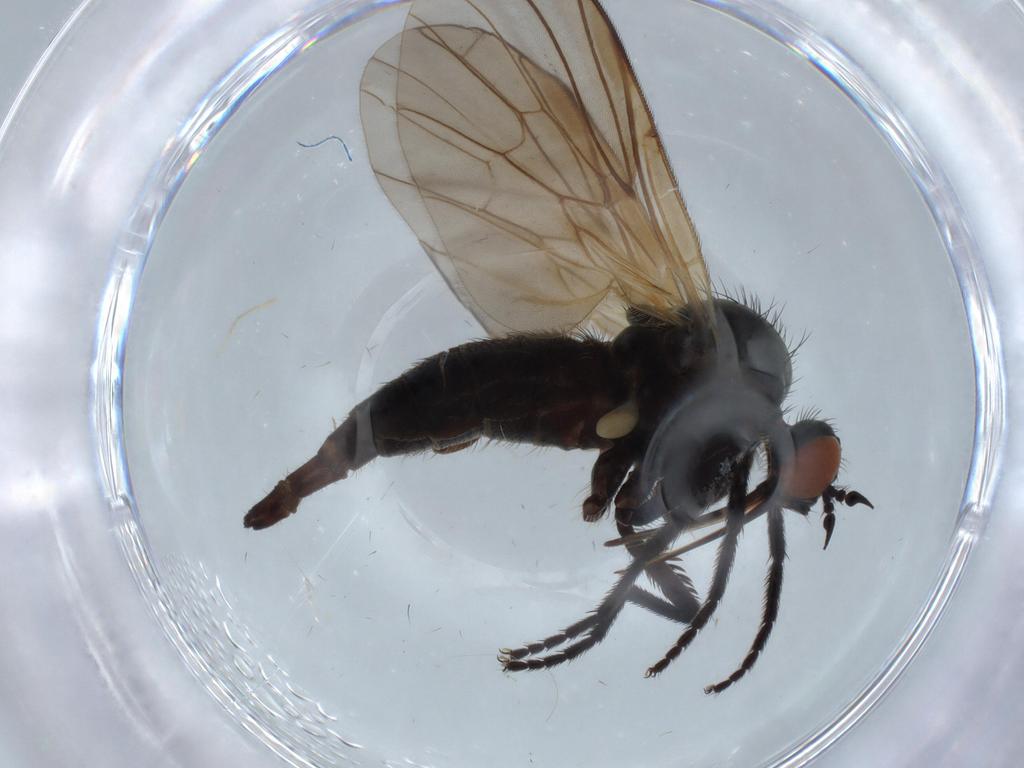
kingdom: Animalia
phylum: Arthropoda
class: Insecta
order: Diptera
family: Empididae
